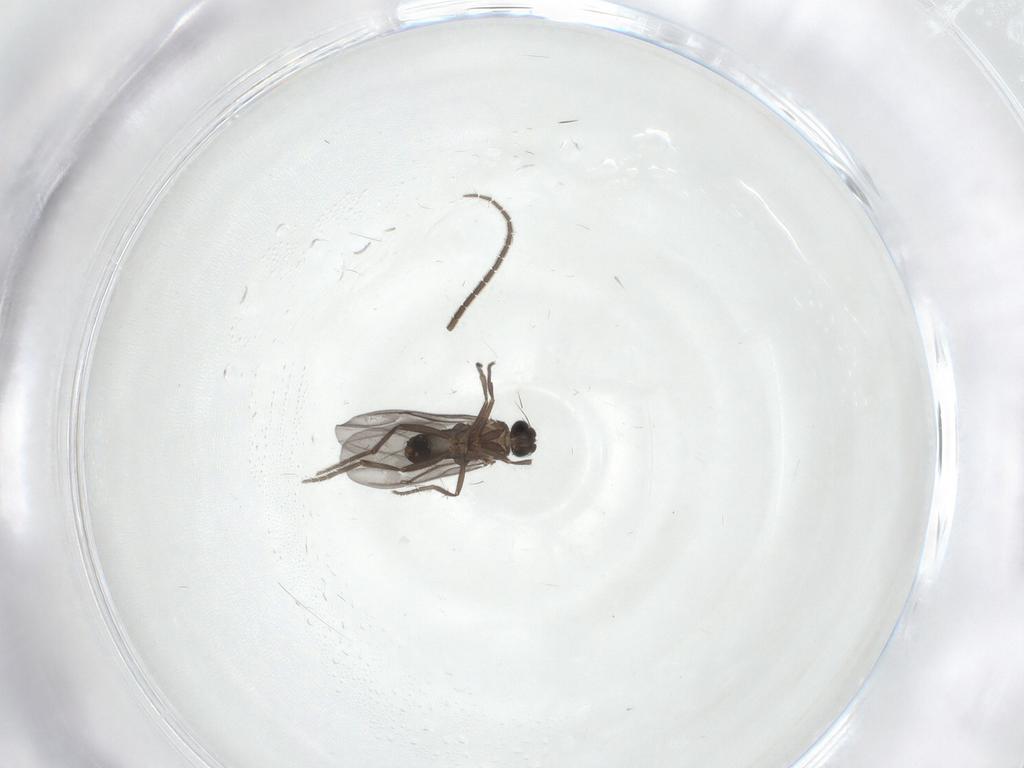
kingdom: Animalia
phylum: Arthropoda
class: Insecta
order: Diptera
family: Phoridae
